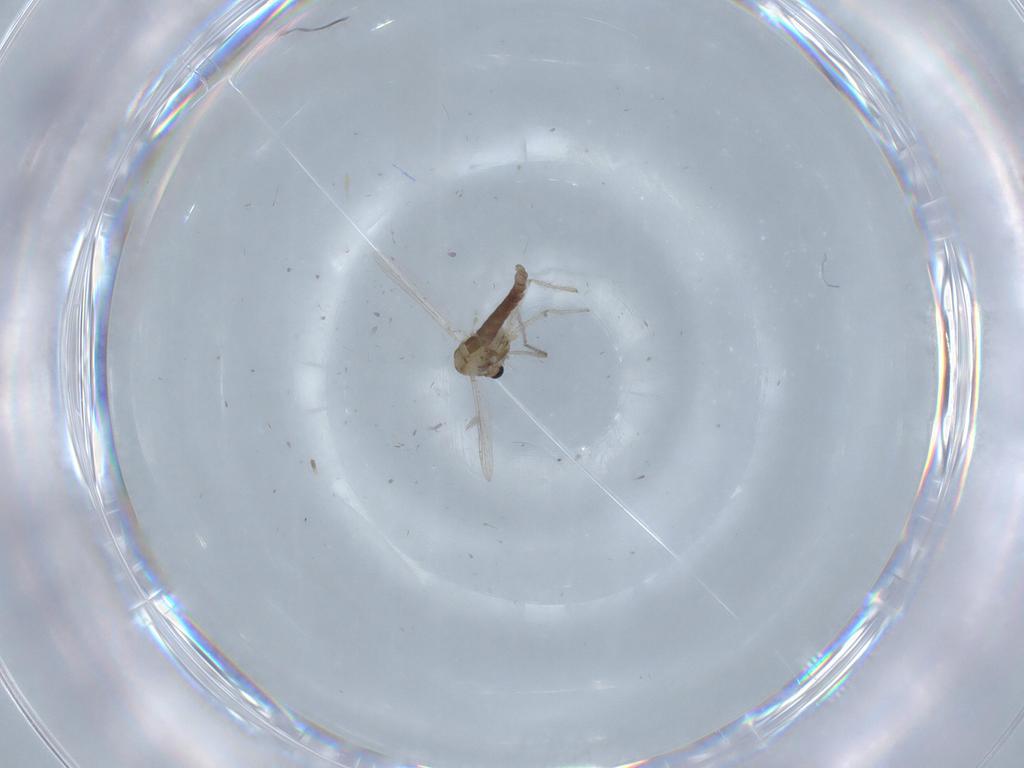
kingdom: Animalia
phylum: Arthropoda
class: Insecta
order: Diptera
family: Chironomidae
